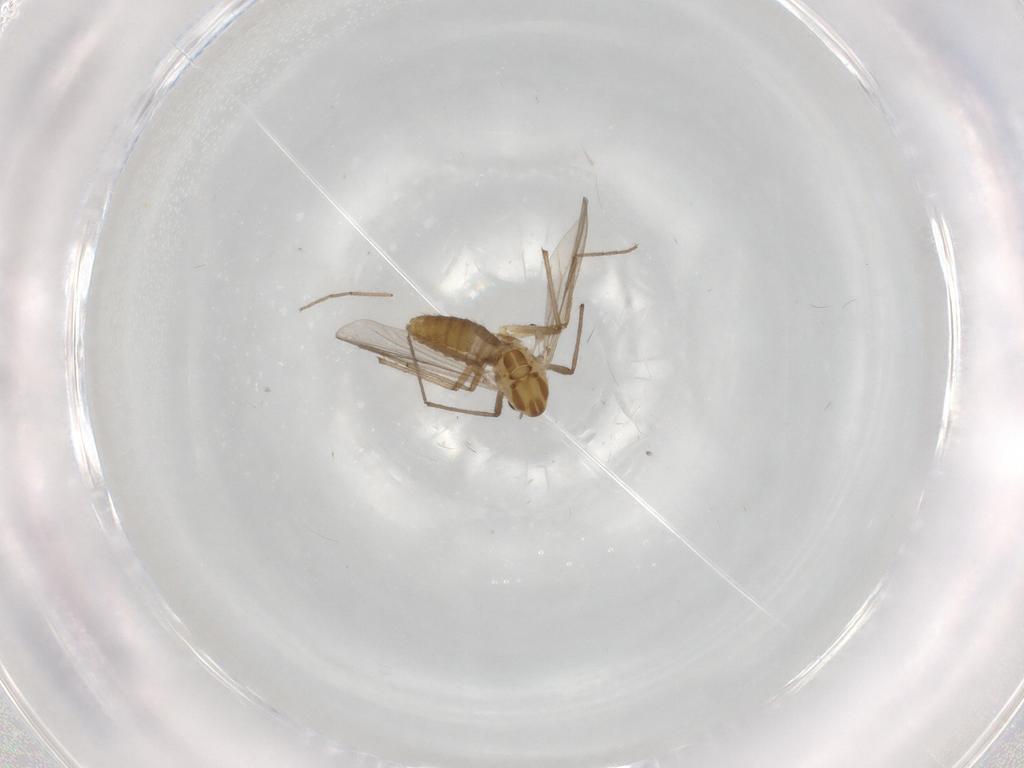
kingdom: Animalia
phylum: Arthropoda
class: Insecta
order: Diptera
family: Chironomidae
